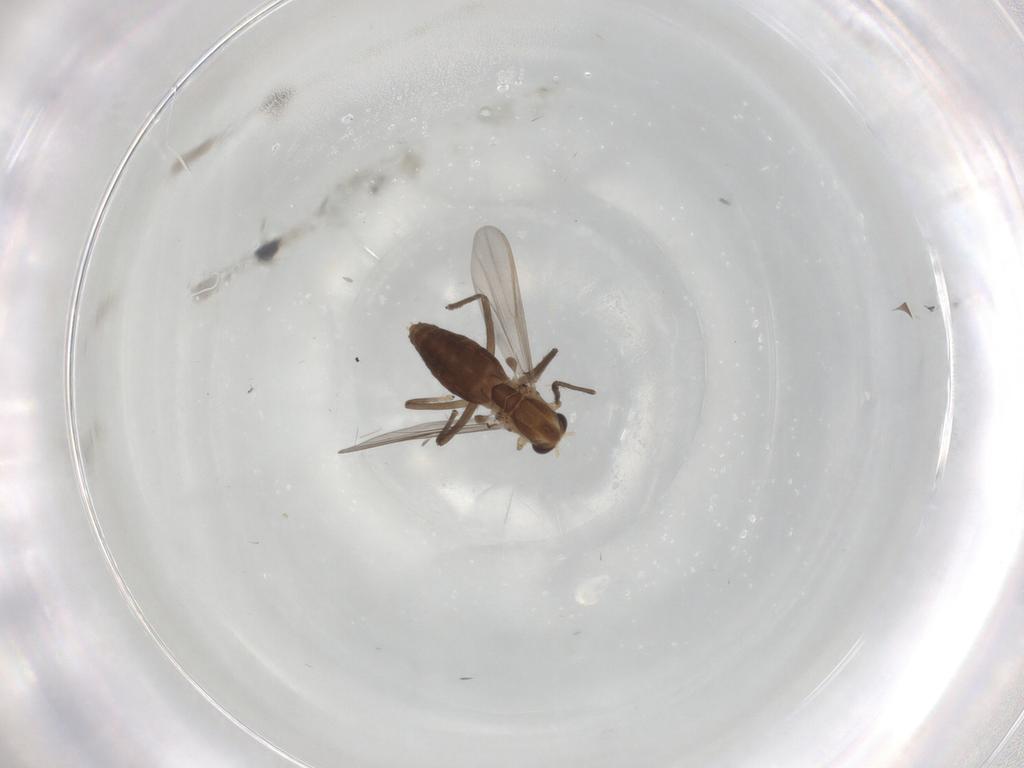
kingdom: Animalia
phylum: Arthropoda
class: Insecta
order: Diptera
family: Chironomidae
